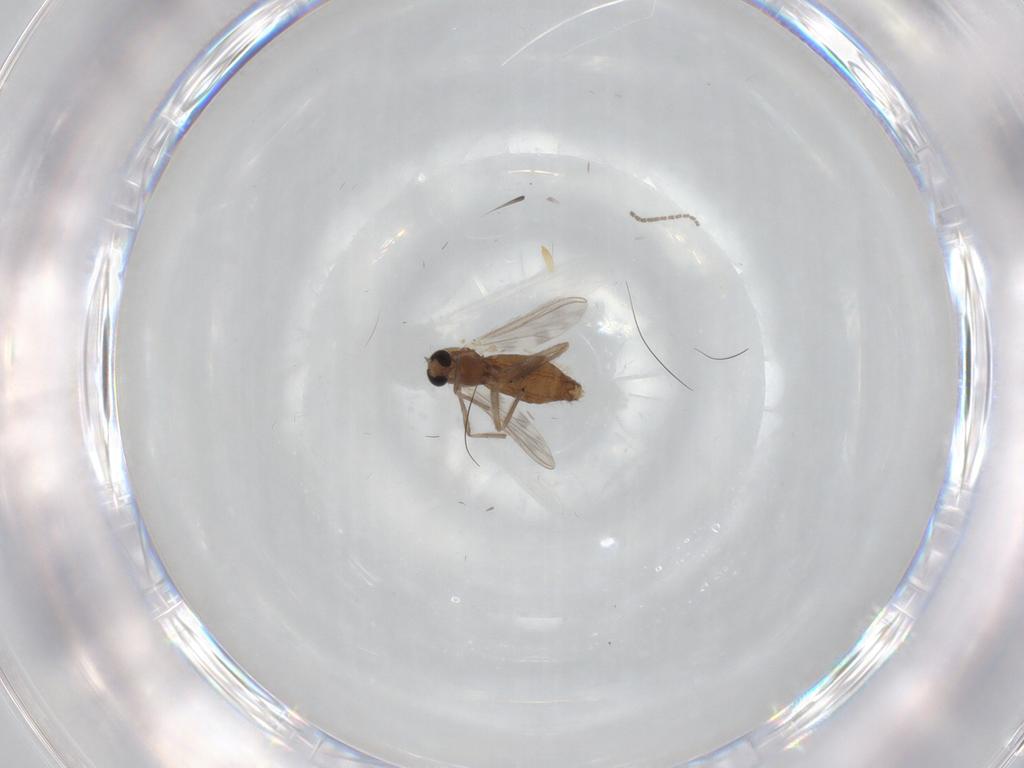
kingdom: Animalia
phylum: Arthropoda
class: Insecta
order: Diptera
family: Chironomidae
